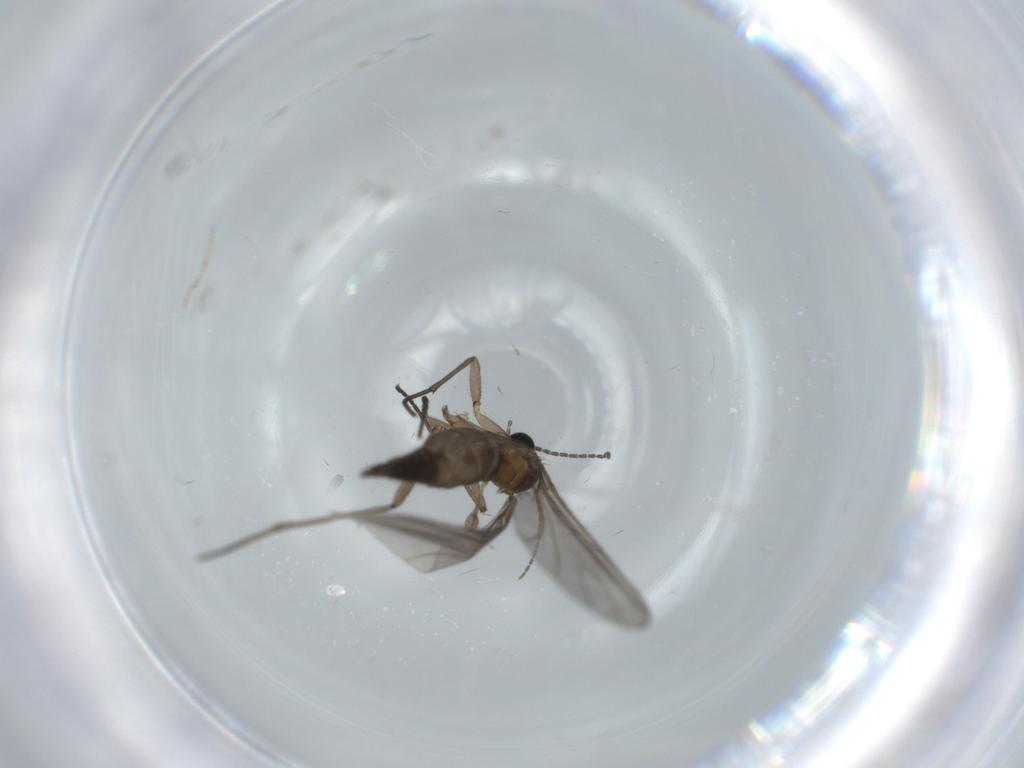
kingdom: Animalia
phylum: Arthropoda
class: Insecta
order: Diptera
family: Sciaridae
